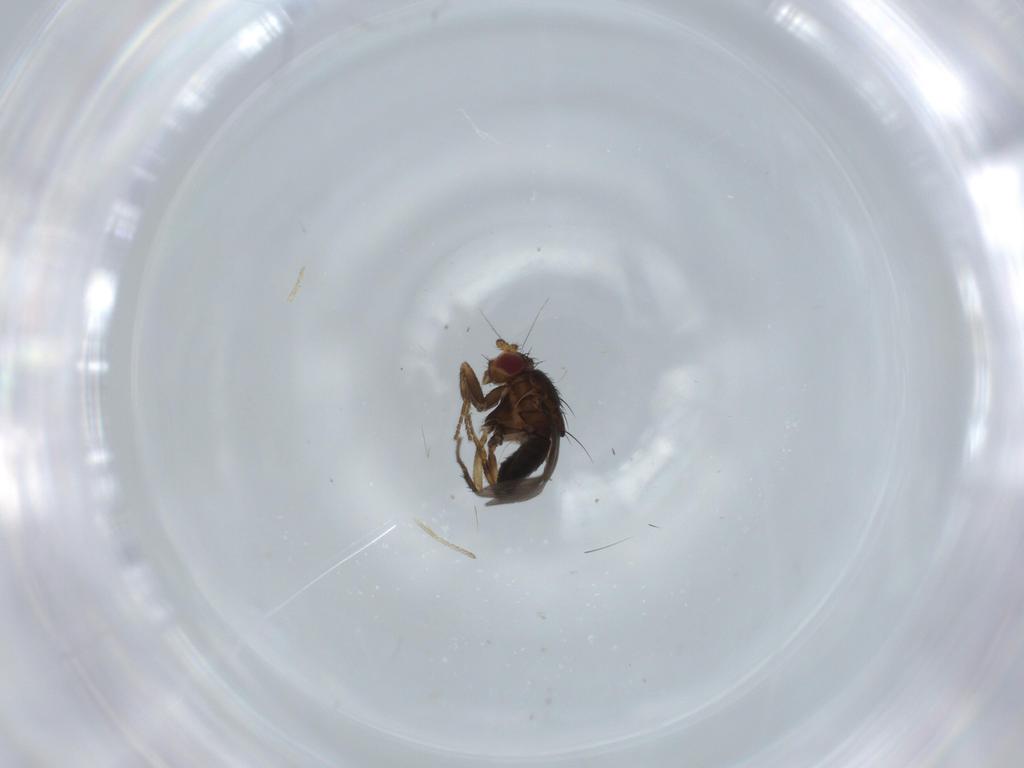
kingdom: Animalia
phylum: Arthropoda
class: Insecta
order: Diptera
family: Cecidomyiidae
